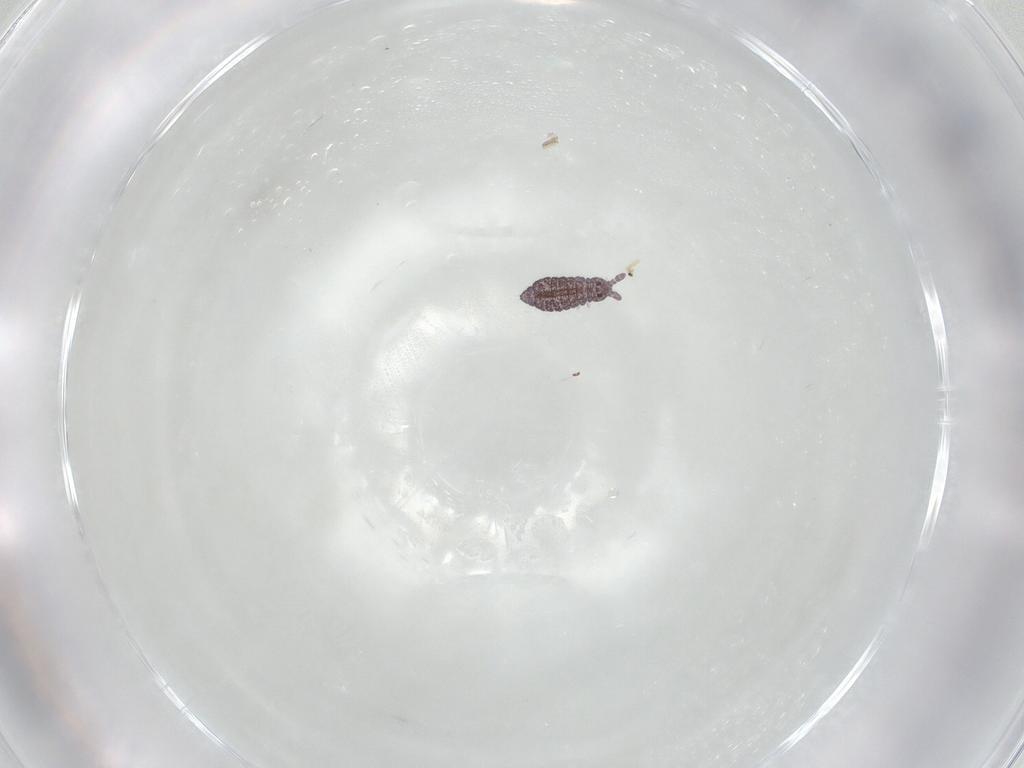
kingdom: Animalia
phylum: Arthropoda
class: Collembola
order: Poduromorpha
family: Hypogastruridae
